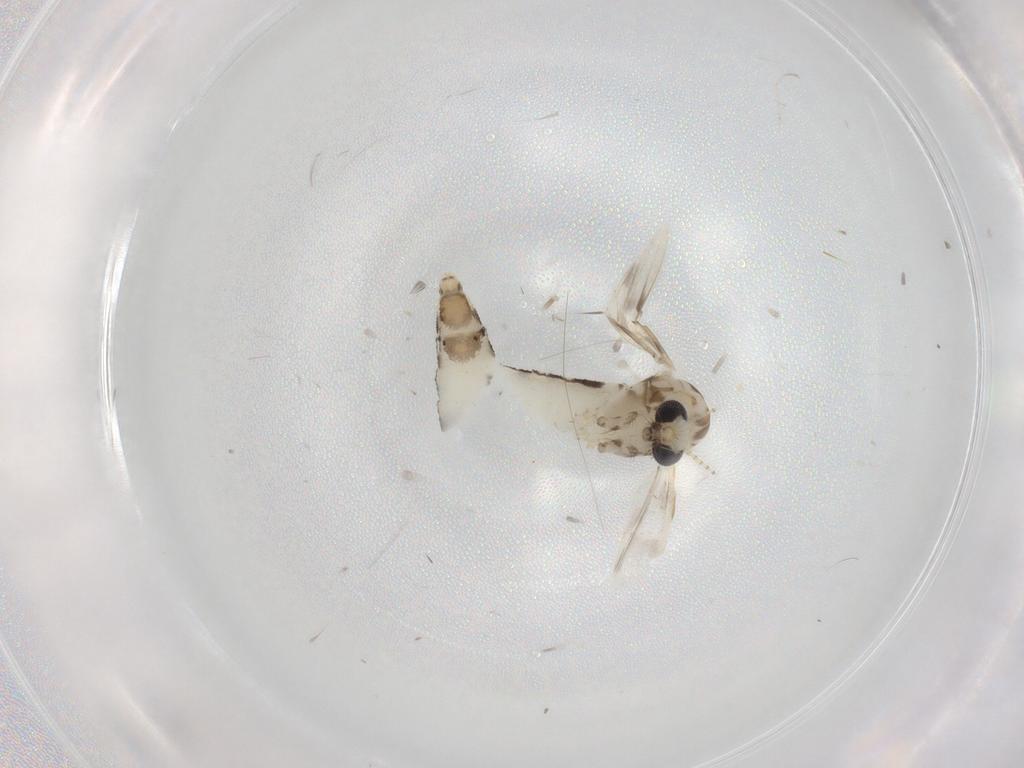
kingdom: Animalia
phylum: Arthropoda
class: Insecta
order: Diptera
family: Corethrellidae
